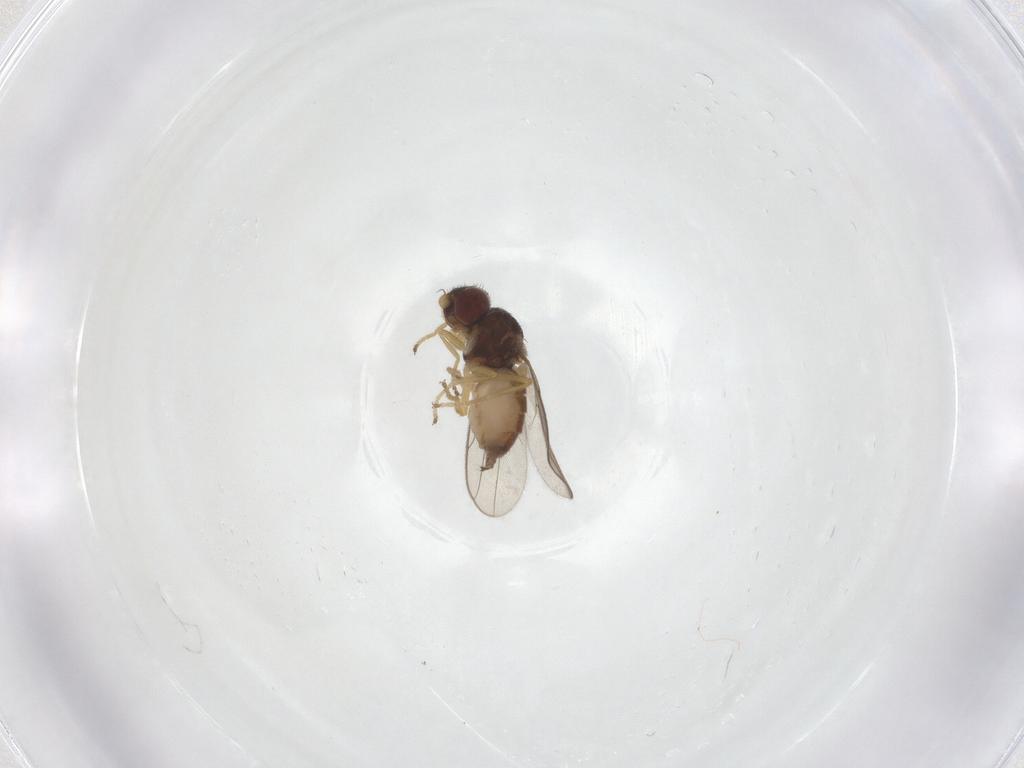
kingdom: Animalia
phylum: Arthropoda
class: Insecta
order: Diptera
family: Chloropidae
